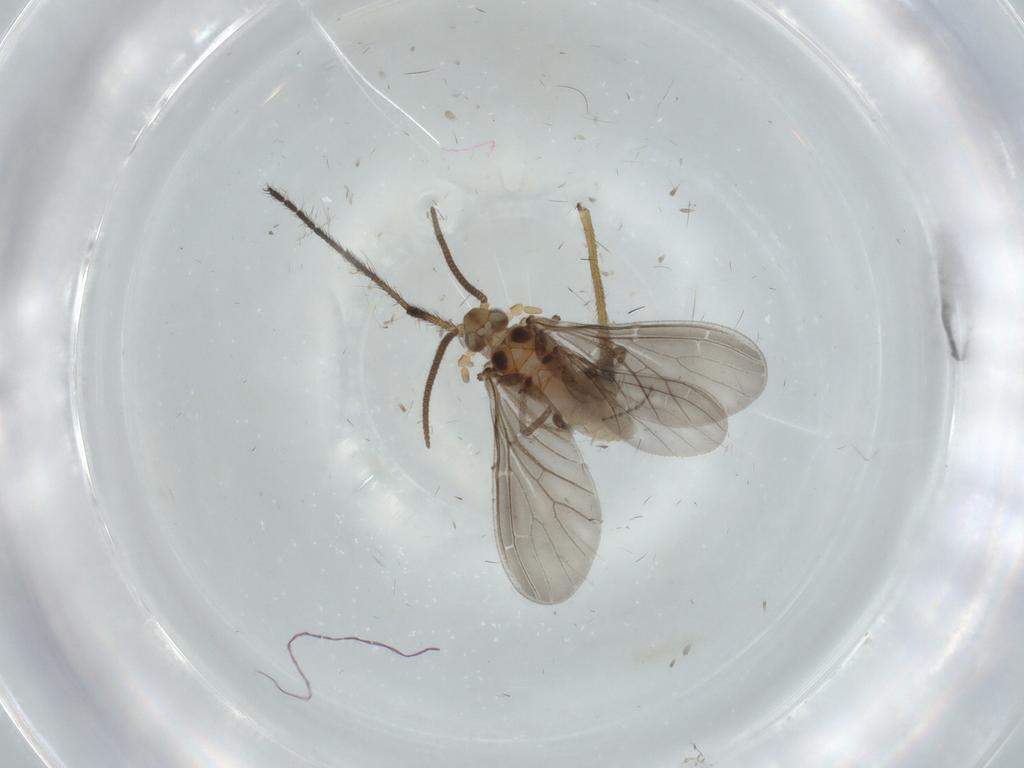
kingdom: Animalia
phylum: Arthropoda
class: Insecta
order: Neuroptera
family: Coniopterygidae
